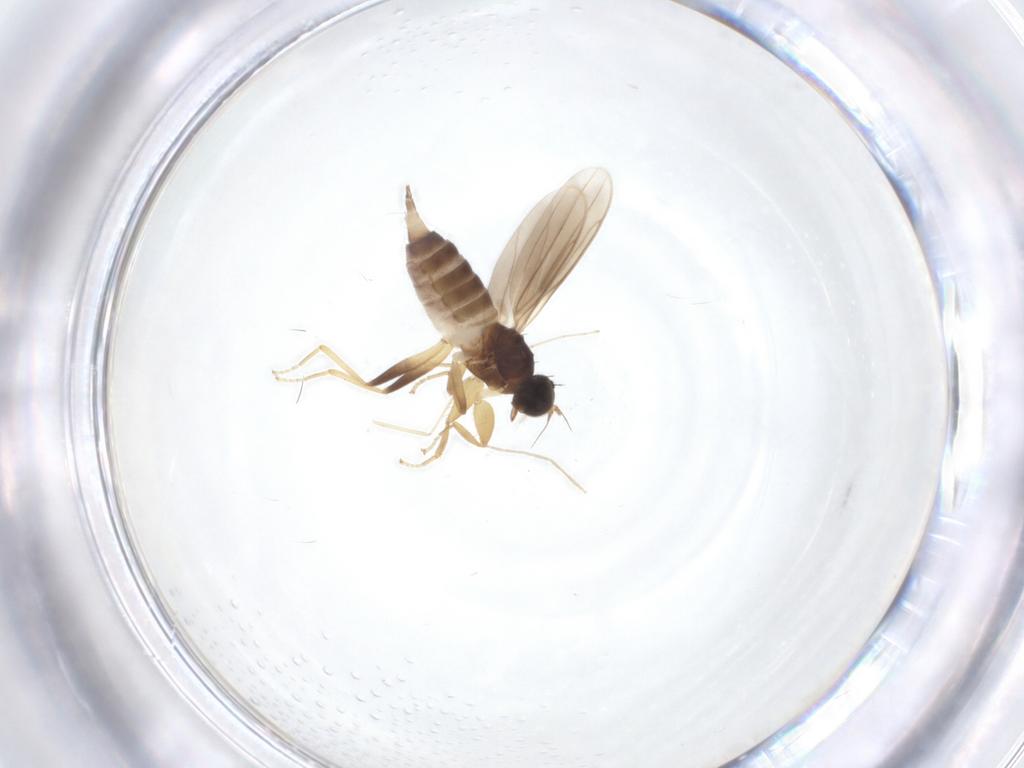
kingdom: Animalia
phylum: Arthropoda
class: Insecta
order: Diptera
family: Hybotidae
